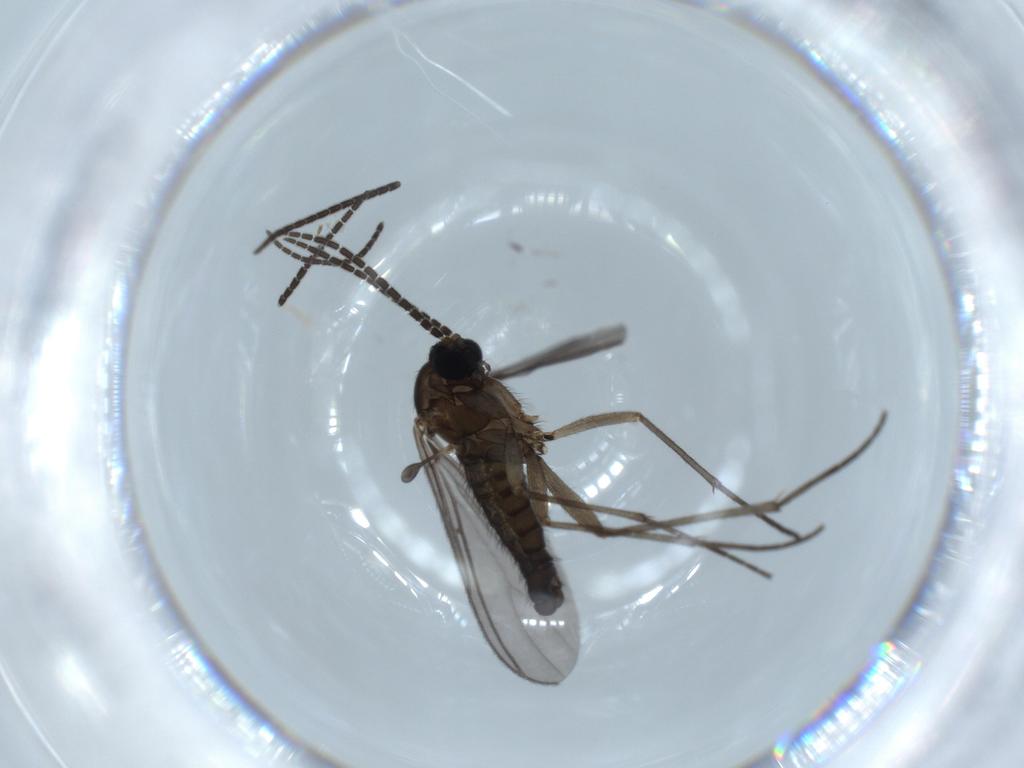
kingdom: Animalia
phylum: Arthropoda
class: Insecta
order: Diptera
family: Sciaridae
